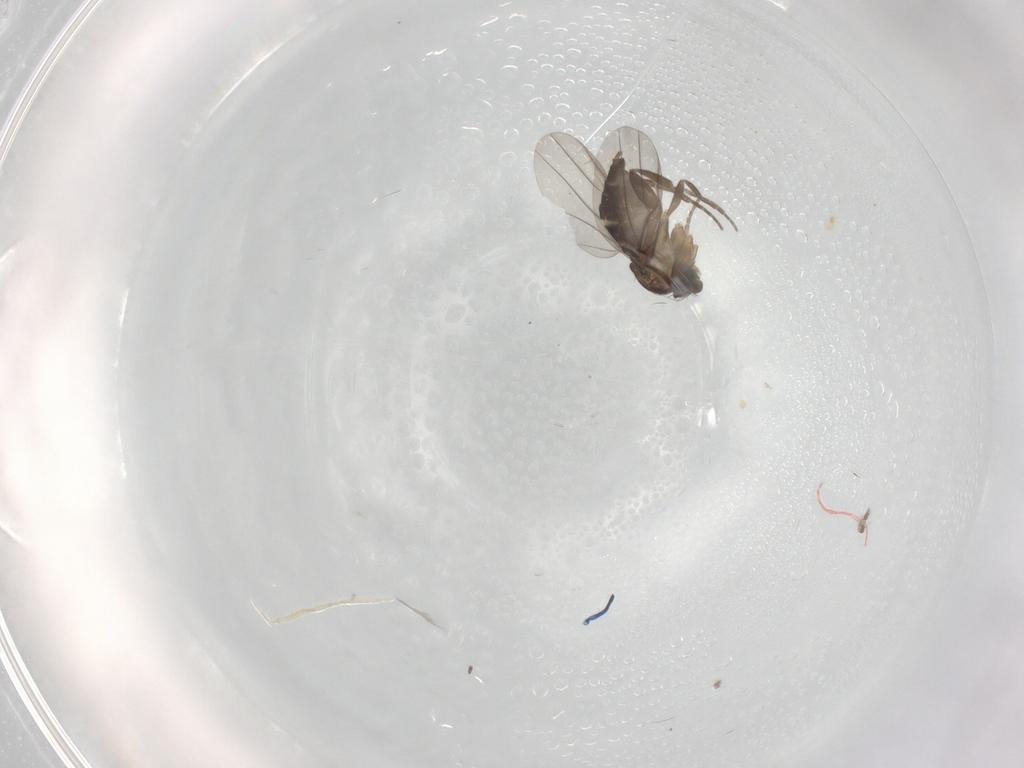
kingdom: Animalia
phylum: Arthropoda
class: Insecta
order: Diptera
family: Phoridae
